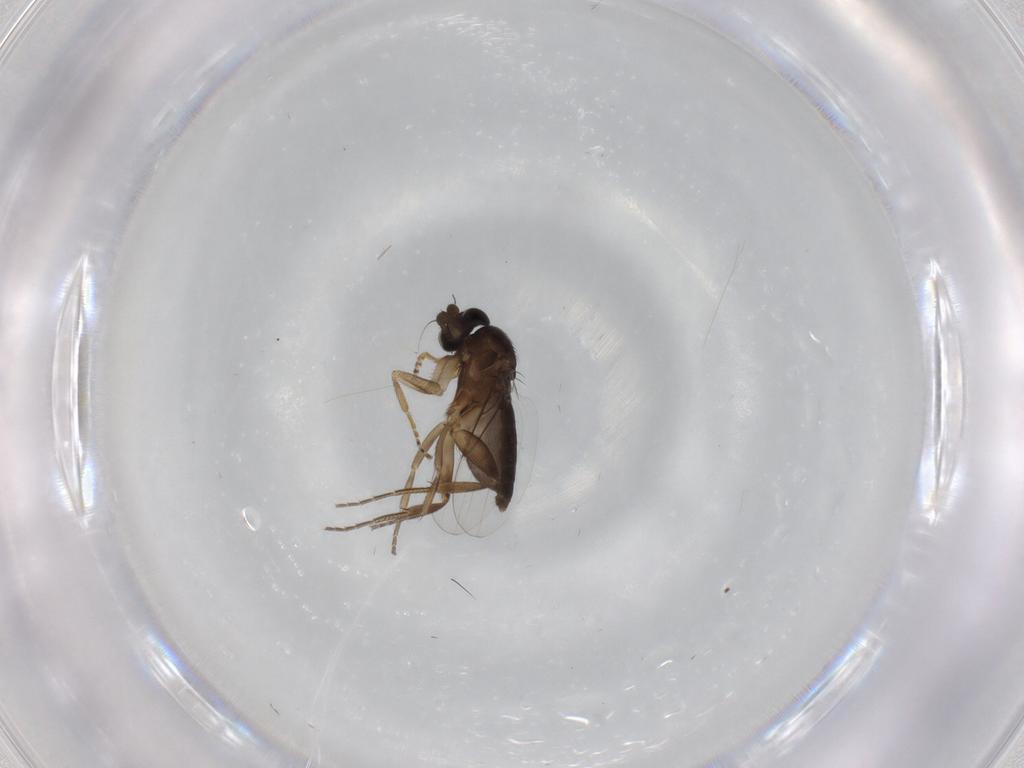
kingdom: Animalia
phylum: Arthropoda
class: Insecta
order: Diptera
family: Phoridae
